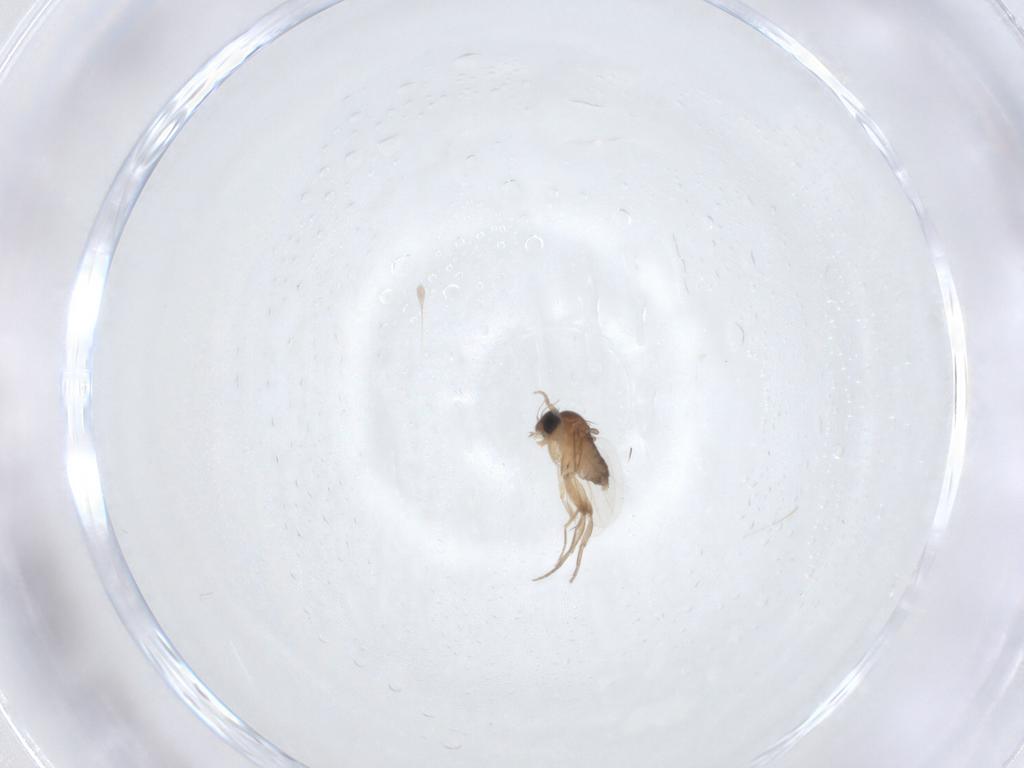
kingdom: Animalia
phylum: Arthropoda
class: Insecta
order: Diptera
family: Phoridae
